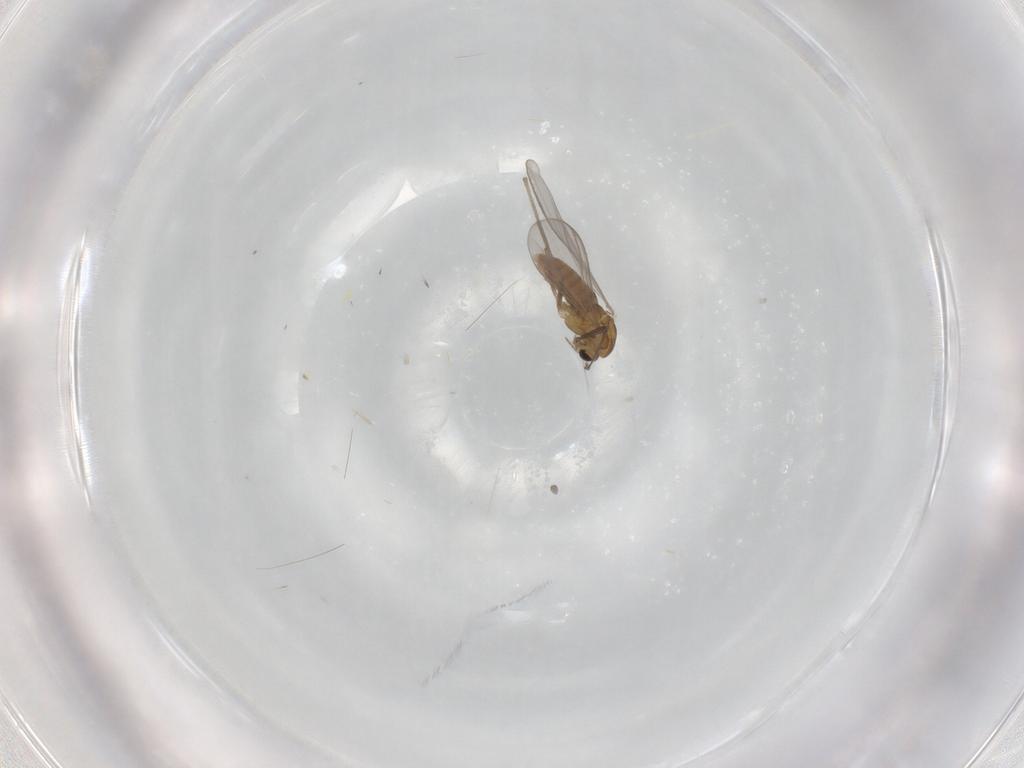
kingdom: Animalia
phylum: Arthropoda
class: Insecta
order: Diptera
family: Chironomidae
